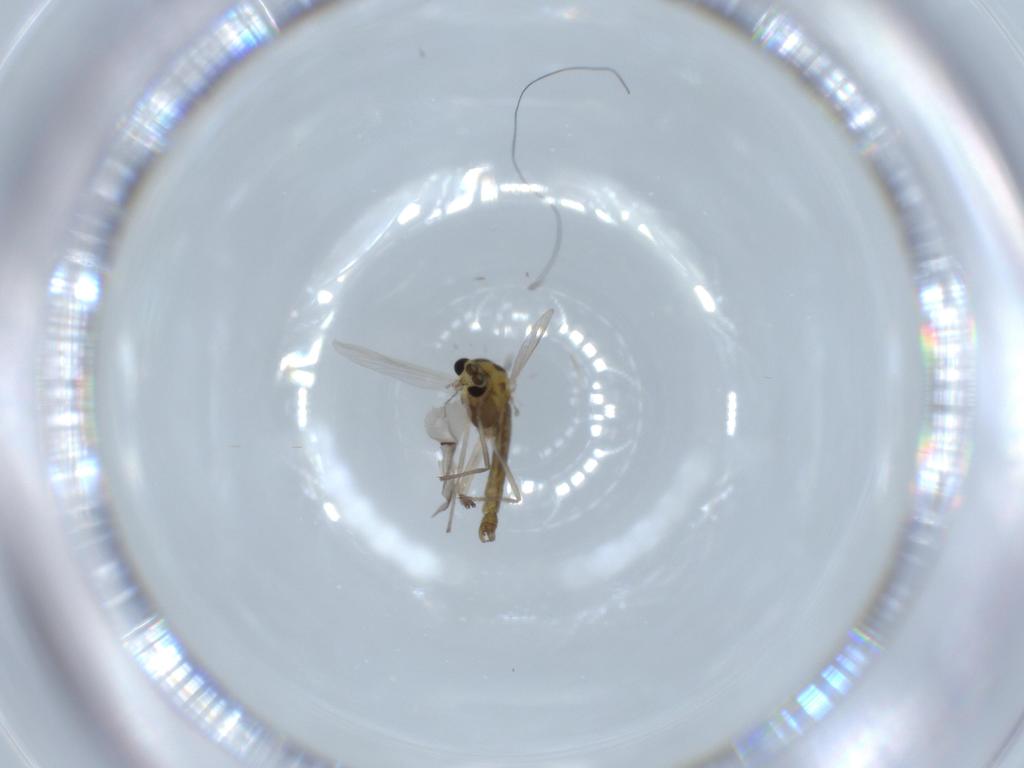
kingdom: Animalia
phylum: Arthropoda
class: Insecta
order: Diptera
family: Chironomidae
